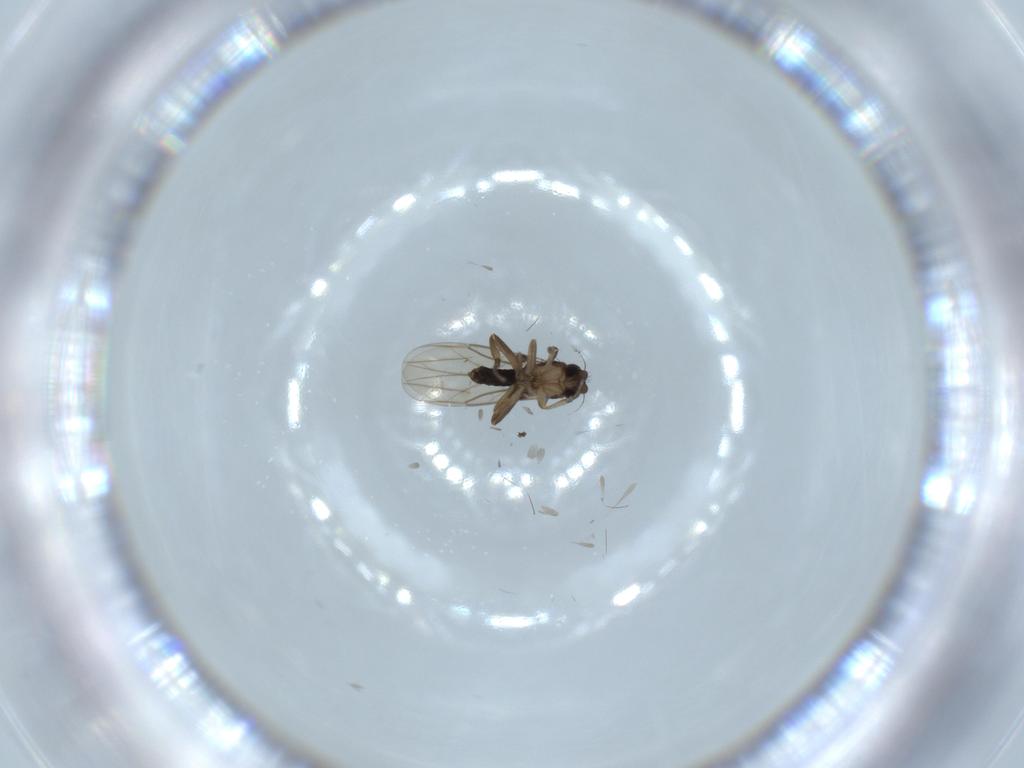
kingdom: Animalia
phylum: Arthropoda
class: Insecta
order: Diptera
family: Phoridae
